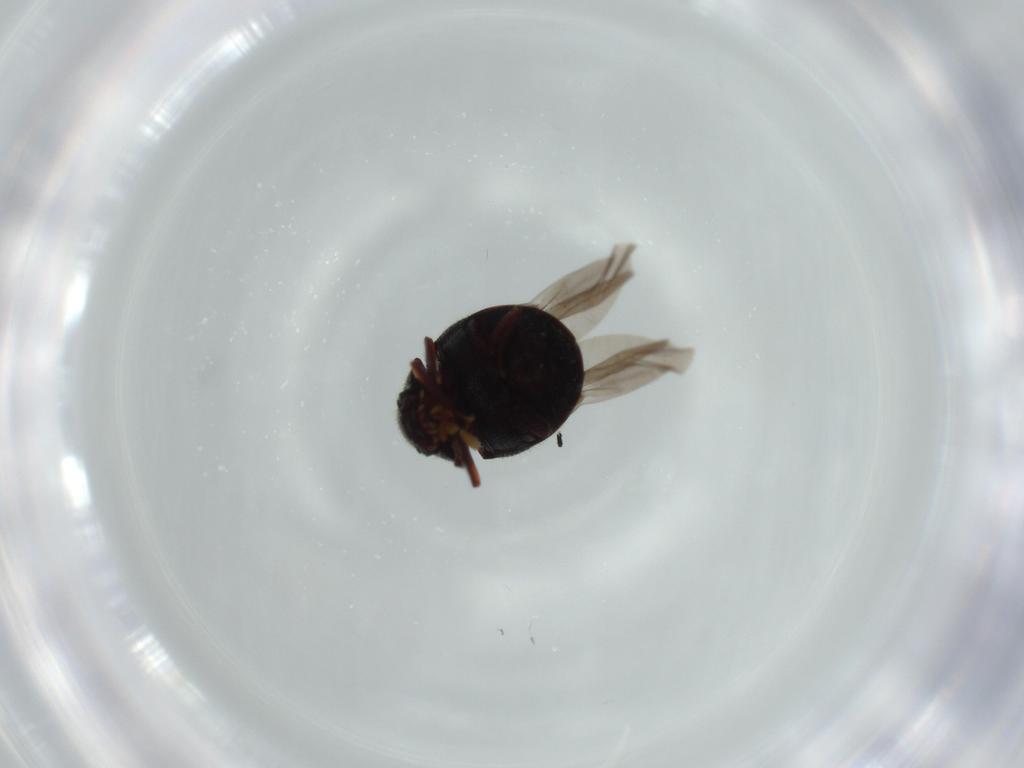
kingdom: Animalia
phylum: Arthropoda
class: Insecta
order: Coleoptera
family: Ptinidae
